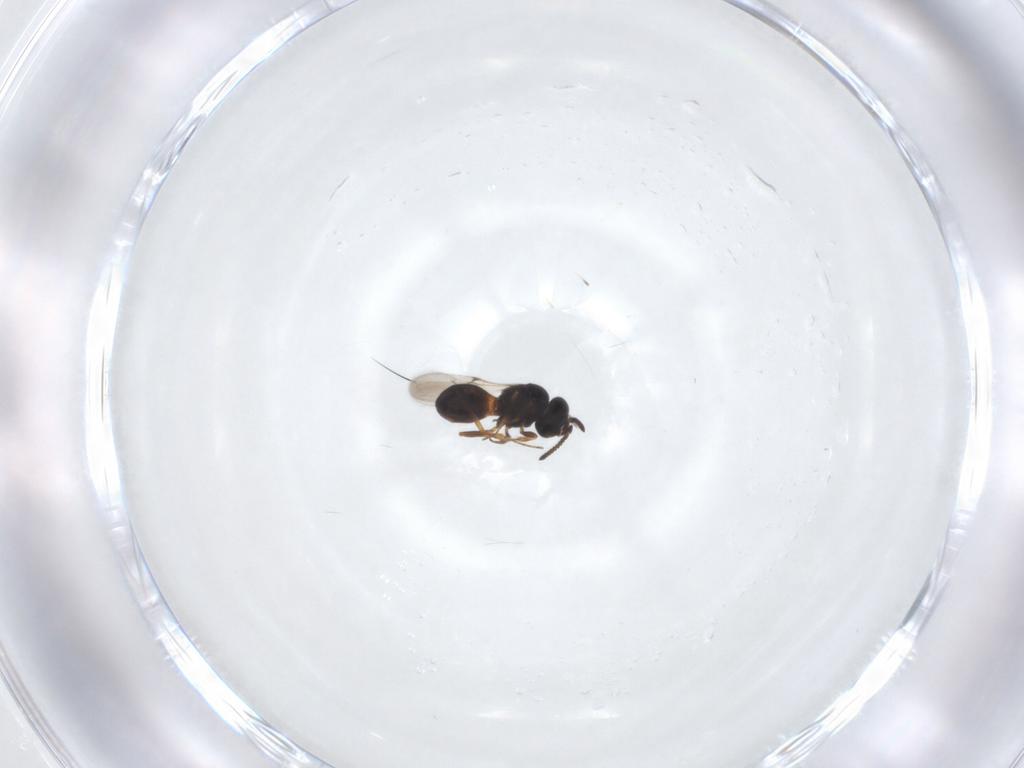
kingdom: Animalia
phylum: Arthropoda
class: Arachnida
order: Araneae
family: Pholcidae
